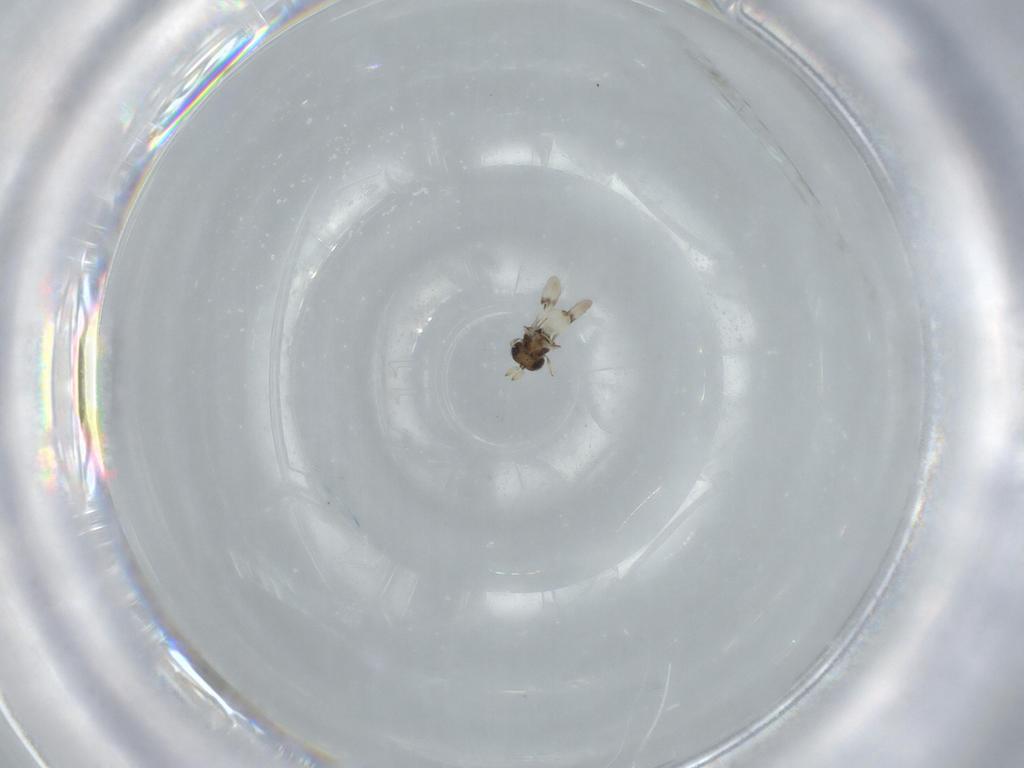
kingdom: Animalia
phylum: Arthropoda
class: Insecta
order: Hymenoptera
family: Scelionidae
